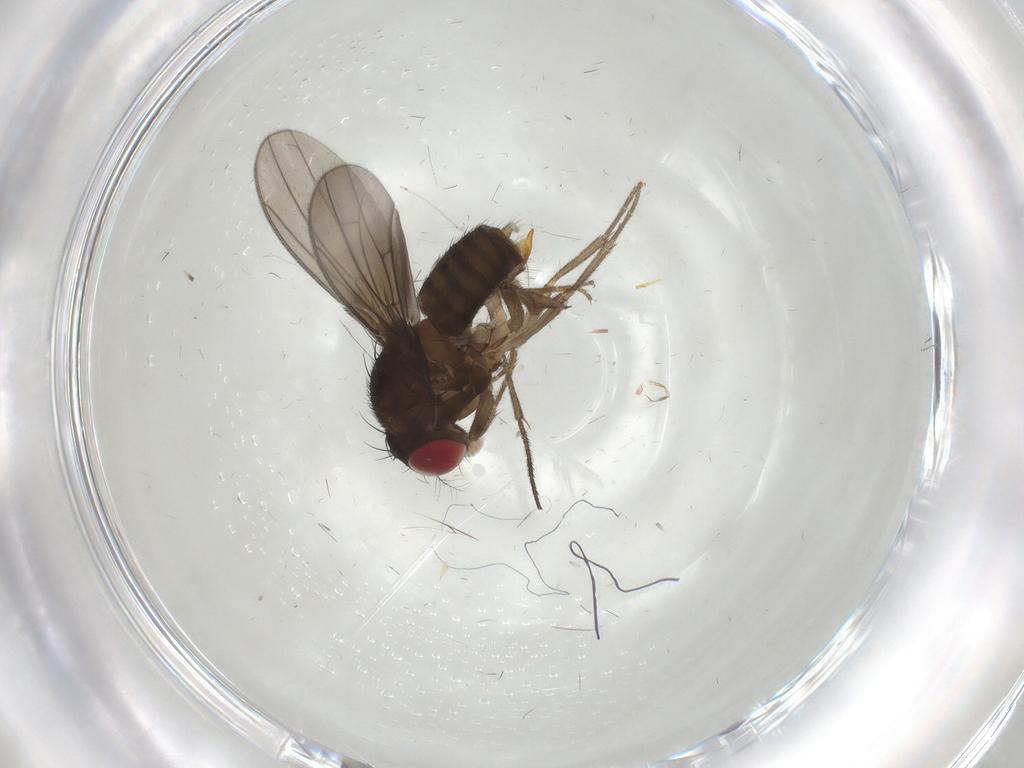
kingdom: Animalia
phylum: Arthropoda
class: Insecta
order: Diptera
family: Drosophilidae
